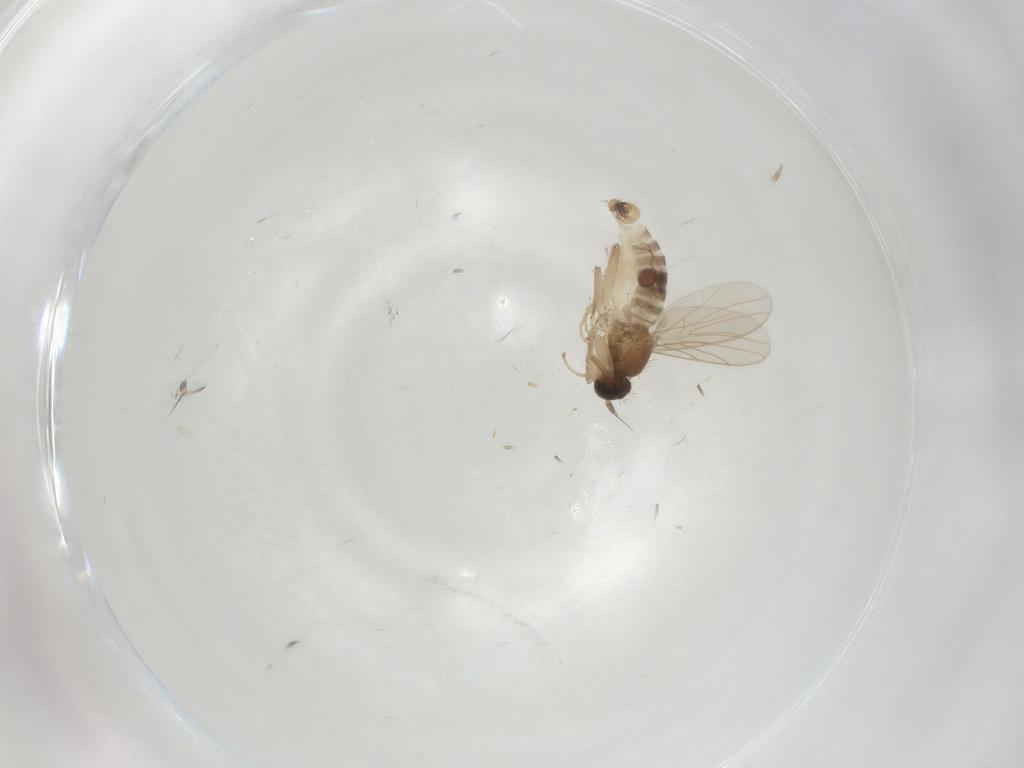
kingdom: Animalia
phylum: Arthropoda
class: Insecta
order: Diptera
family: Hybotidae
